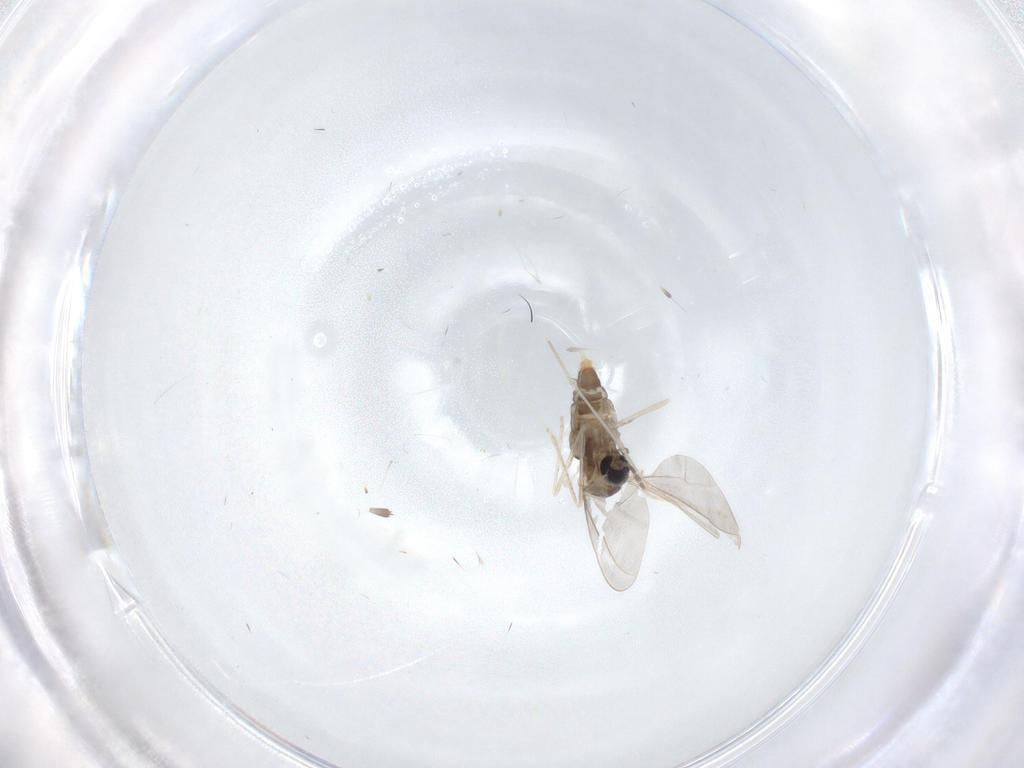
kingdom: Animalia
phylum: Arthropoda
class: Insecta
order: Diptera
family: Cecidomyiidae
